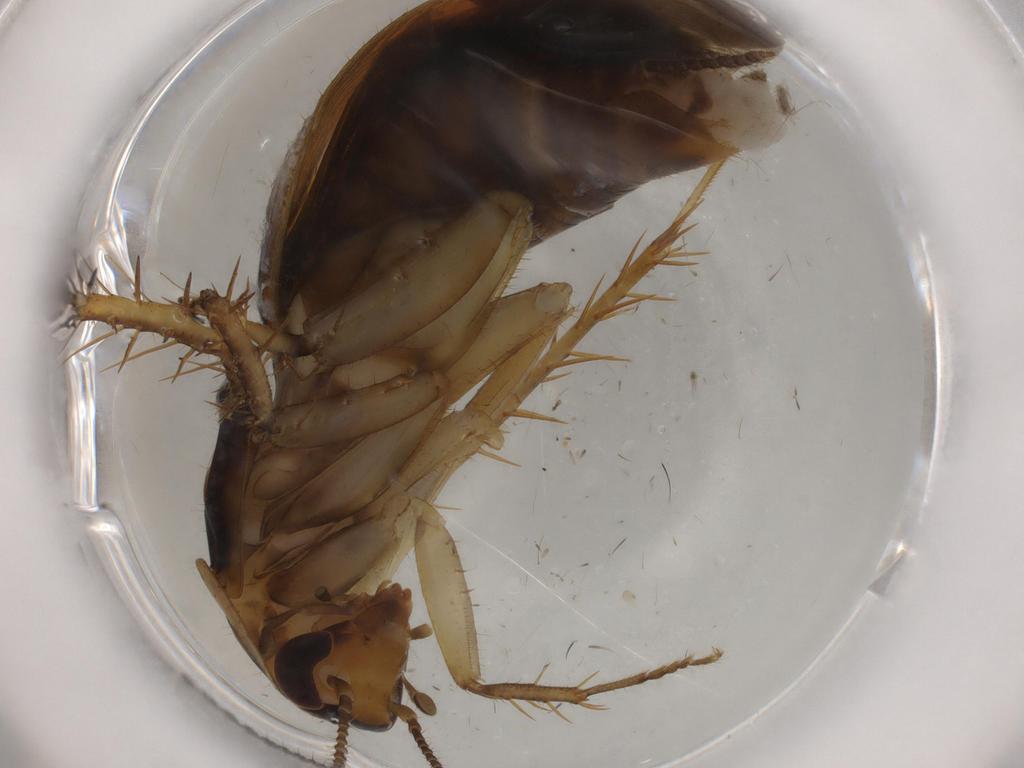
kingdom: Animalia
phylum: Arthropoda
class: Insecta
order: Blattodea
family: Ectobiidae
